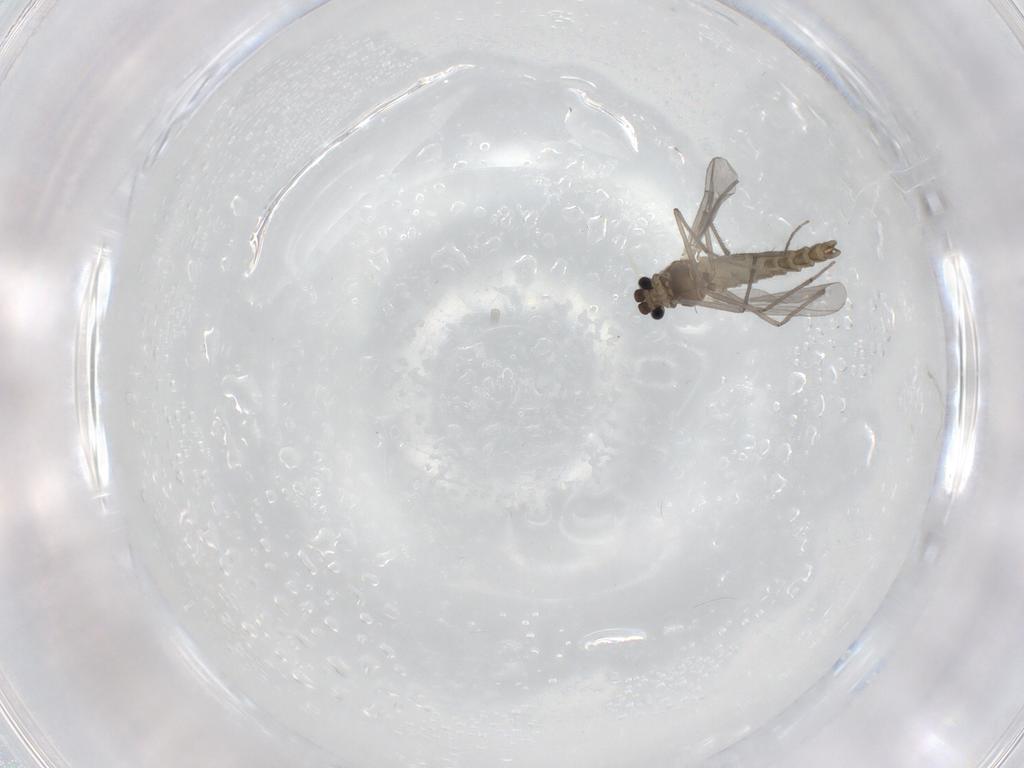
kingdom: Animalia
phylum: Arthropoda
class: Insecta
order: Diptera
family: Chironomidae
